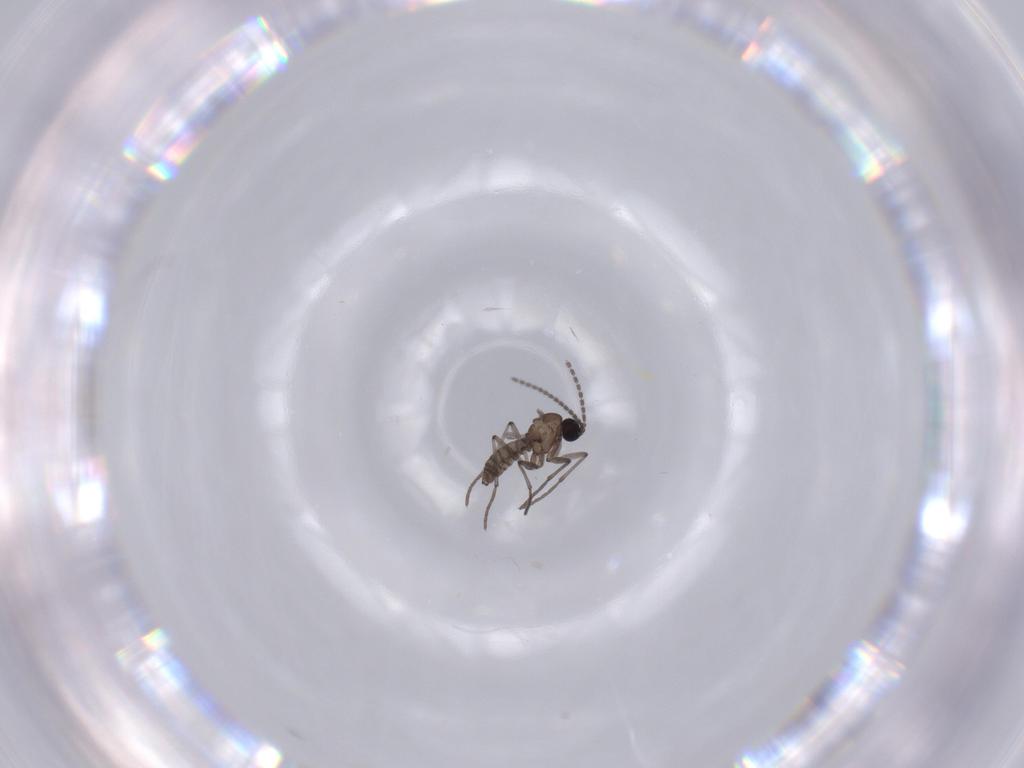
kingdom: Animalia
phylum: Arthropoda
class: Insecta
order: Diptera
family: Sciaridae
